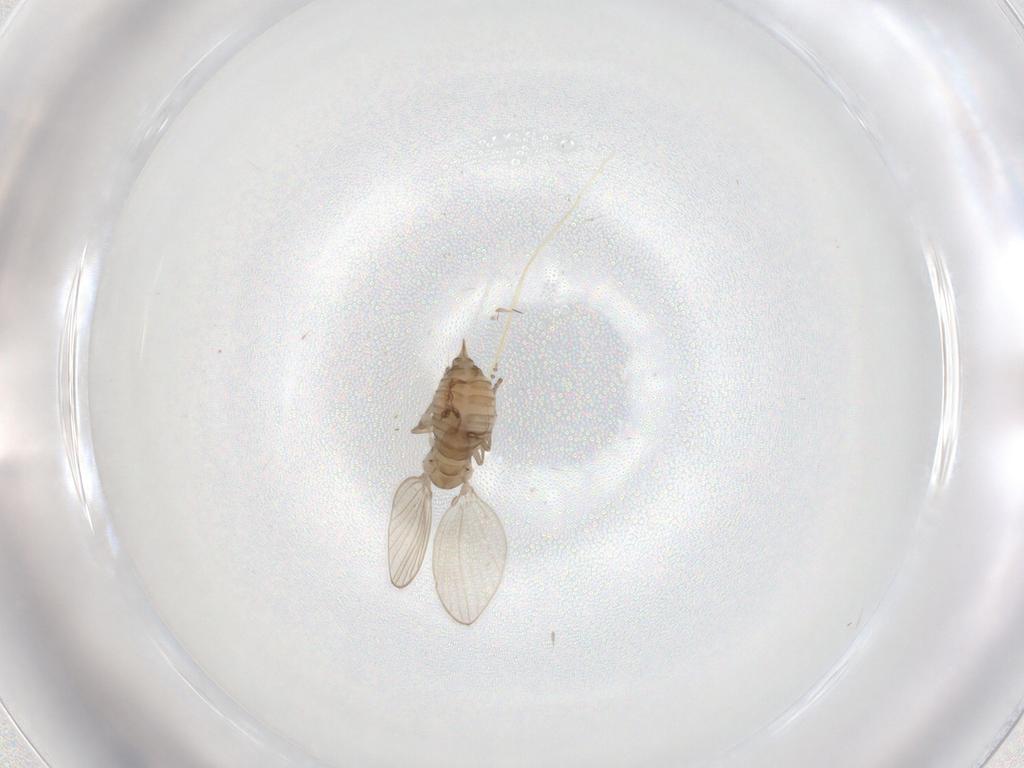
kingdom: Animalia
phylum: Arthropoda
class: Insecta
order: Diptera
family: Psychodidae
